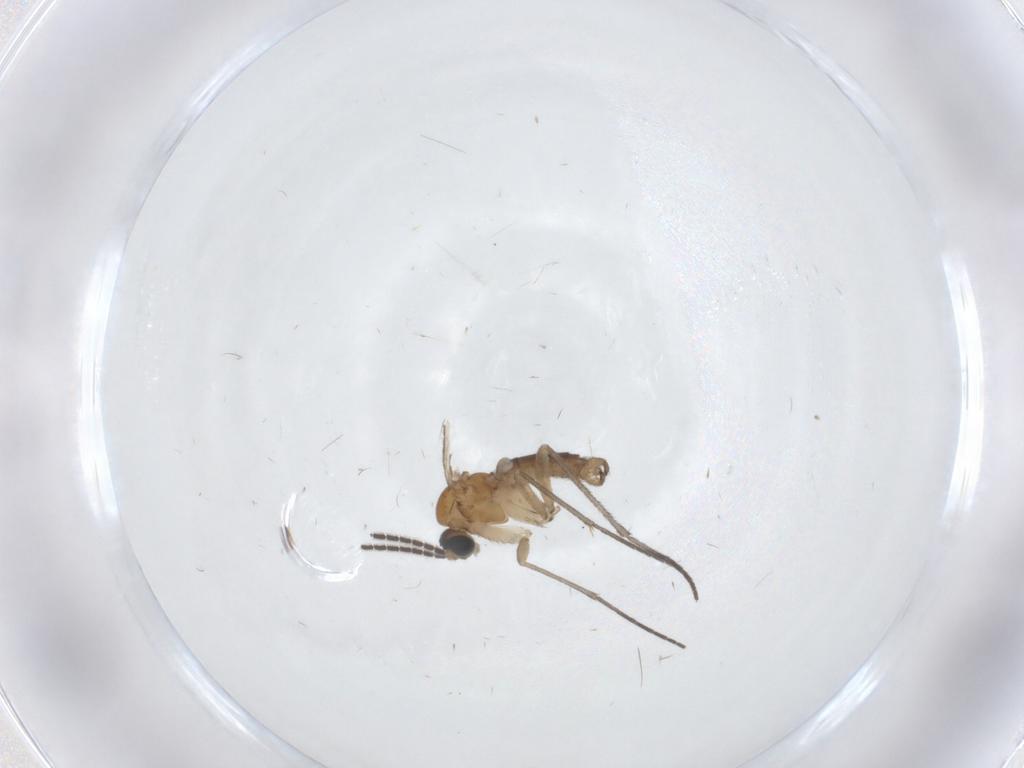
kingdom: Animalia
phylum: Arthropoda
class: Insecta
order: Diptera
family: Sciaridae
